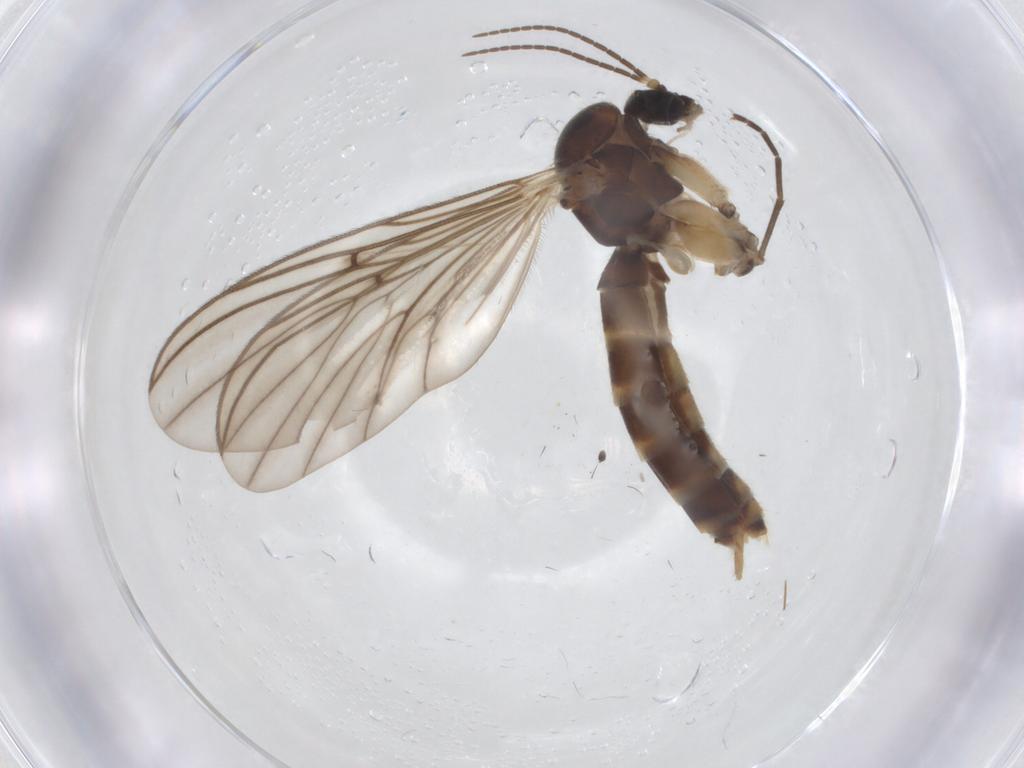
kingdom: Animalia
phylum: Arthropoda
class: Insecta
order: Diptera
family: Mycetophilidae
